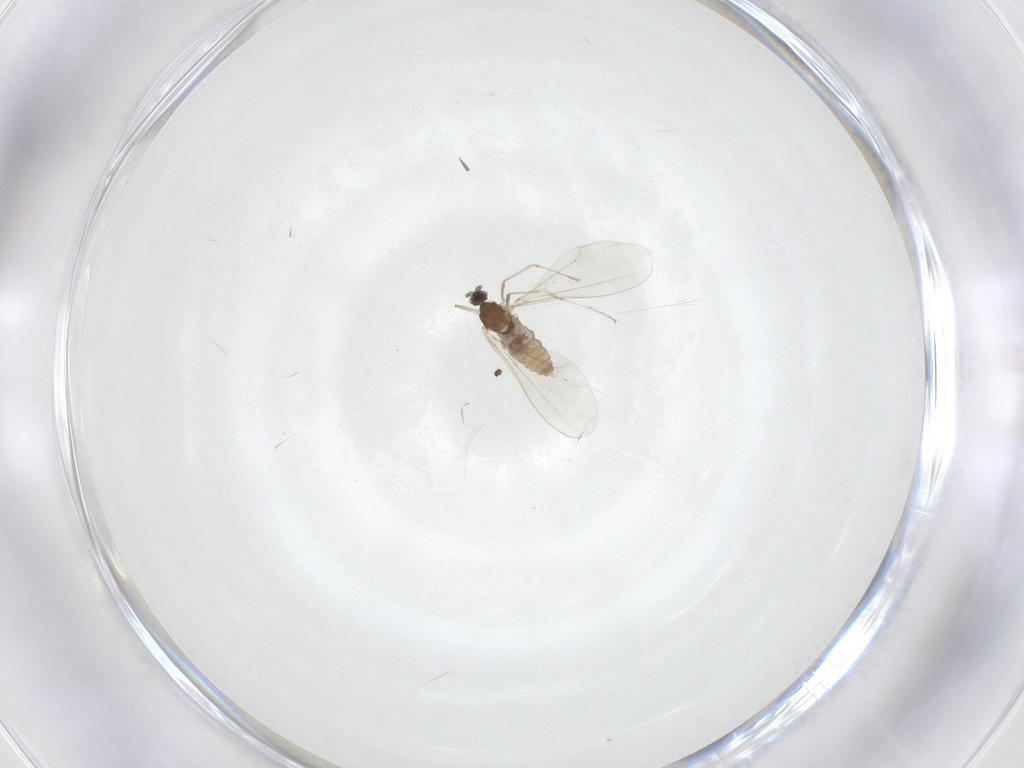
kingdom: Animalia
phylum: Arthropoda
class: Insecta
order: Diptera
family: Cecidomyiidae
